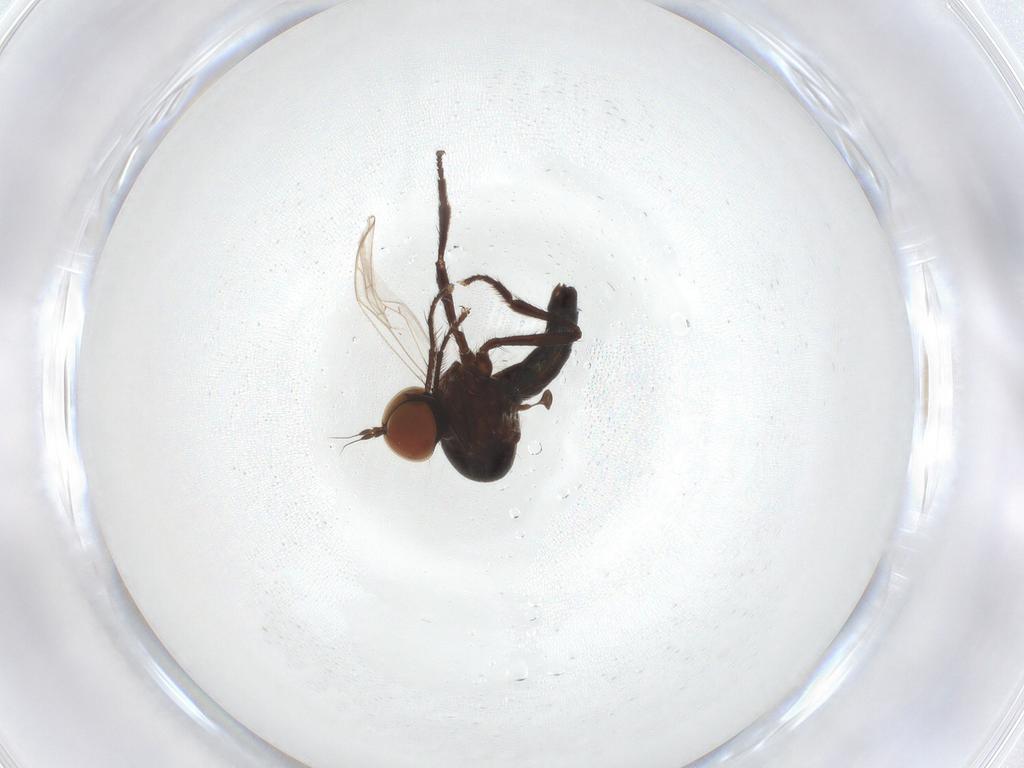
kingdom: Animalia
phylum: Arthropoda
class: Insecta
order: Diptera
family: Hybotidae
